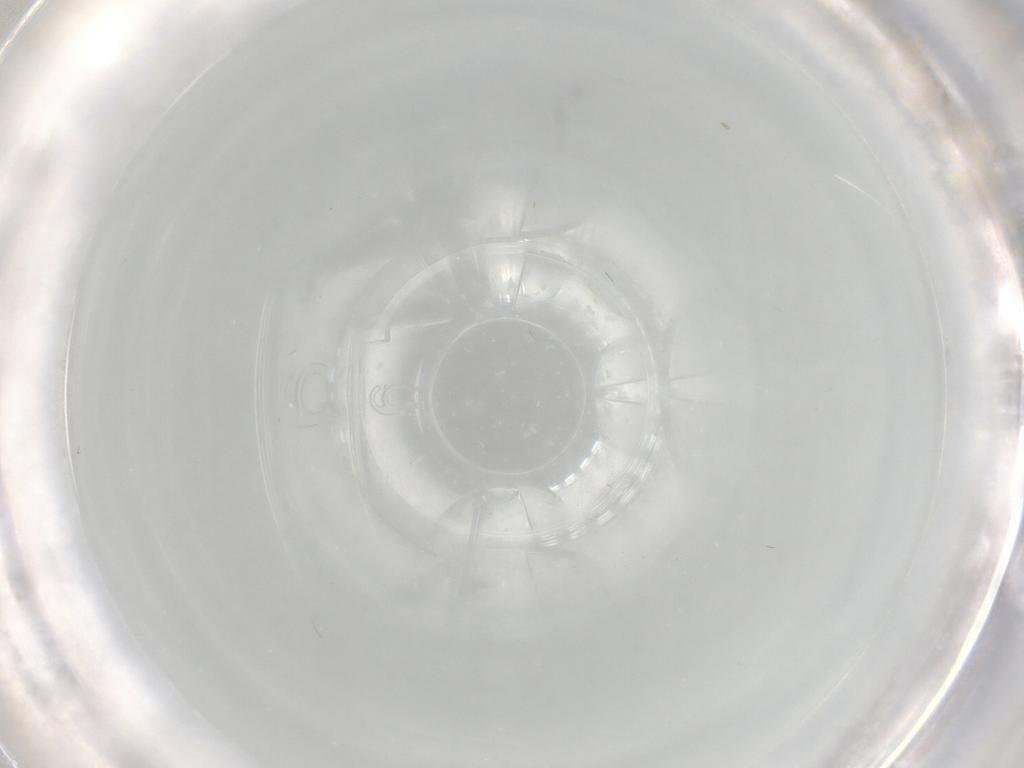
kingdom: Animalia
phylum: Arthropoda
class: Insecta
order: Diptera
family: Cecidomyiidae
